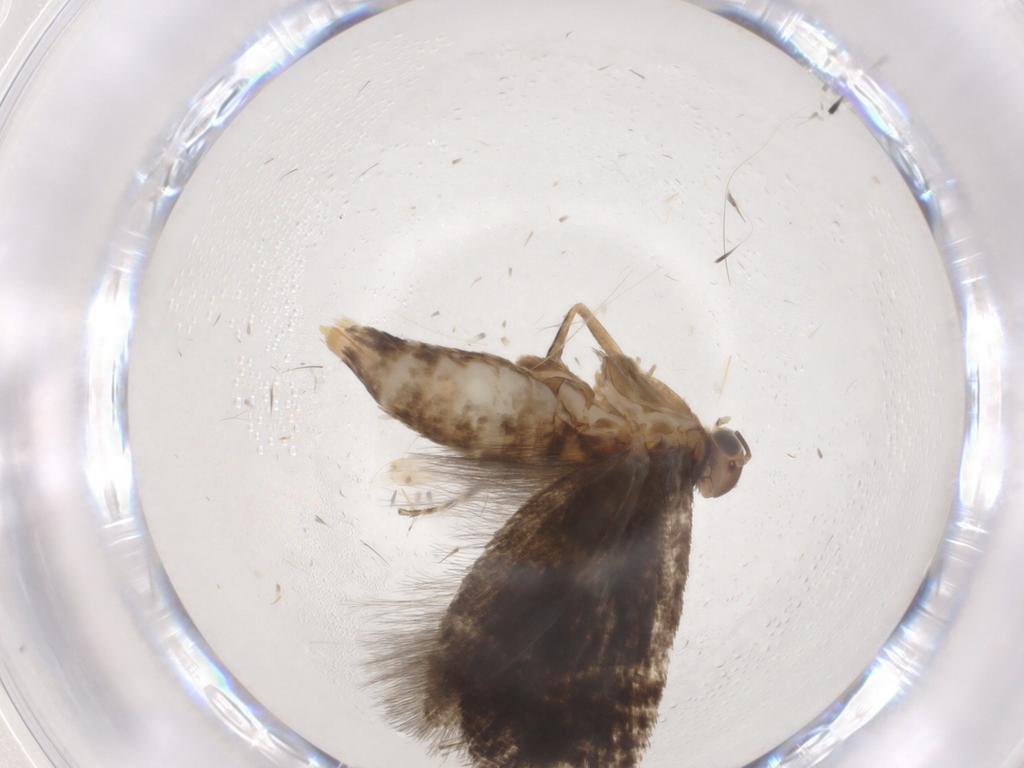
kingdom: Animalia
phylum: Arthropoda
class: Insecta
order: Lepidoptera
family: Glyphipterigidae
